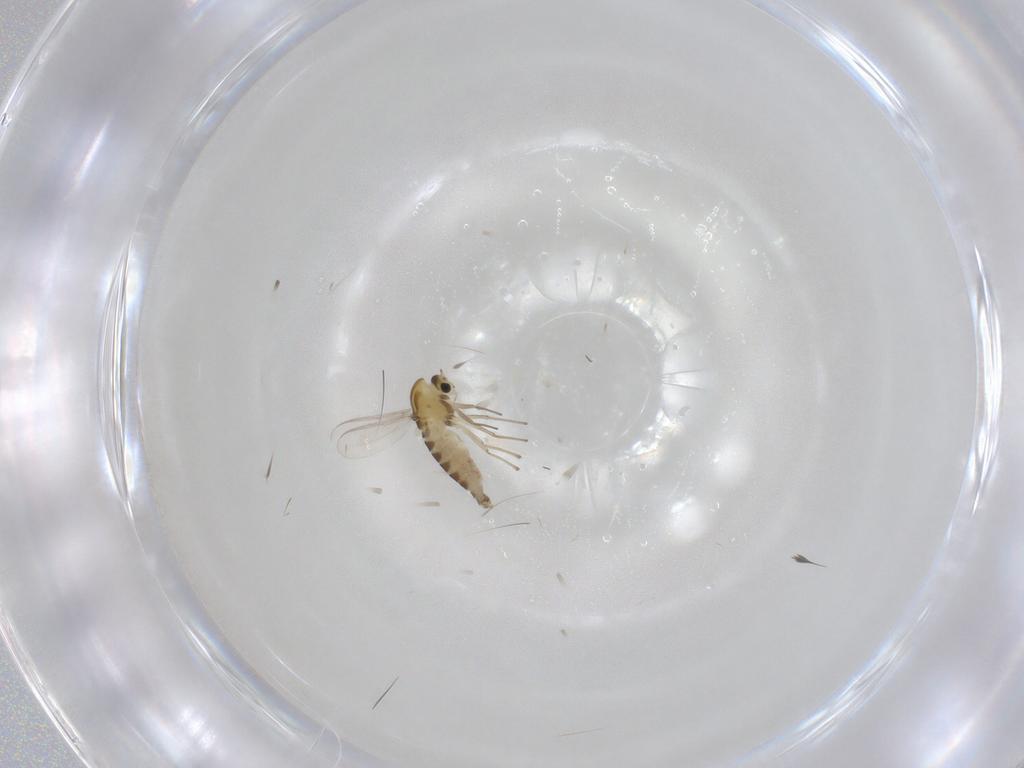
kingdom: Animalia
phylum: Arthropoda
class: Insecta
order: Diptera
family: Chironomidae
